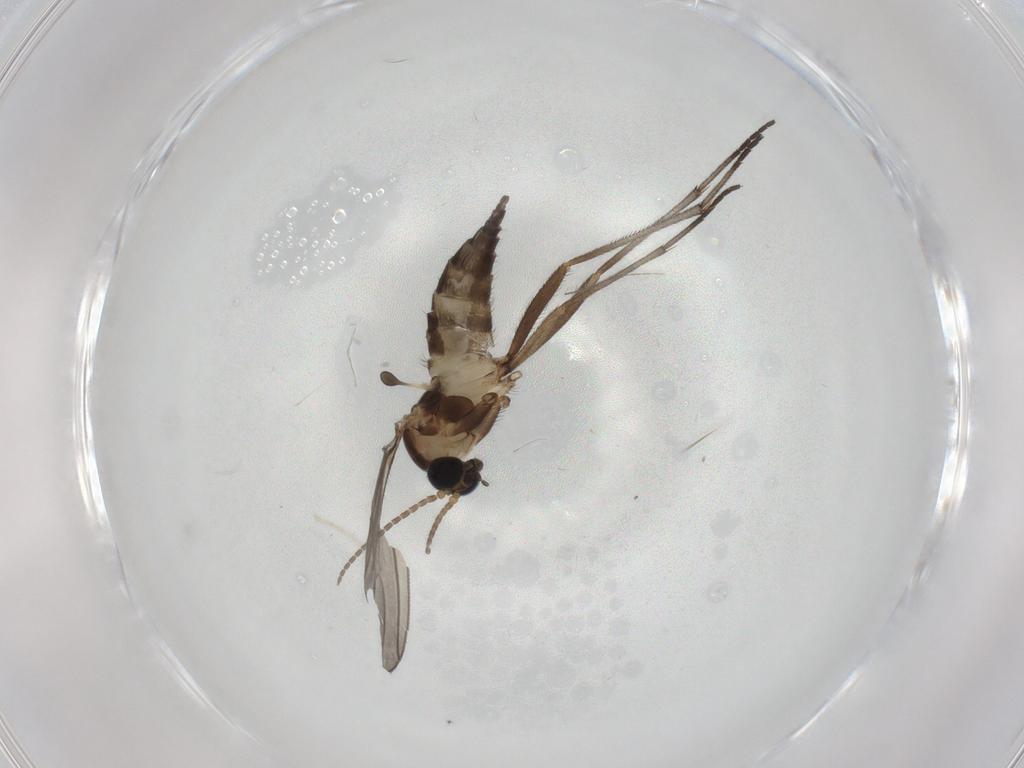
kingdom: Animalia
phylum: Arthropoda
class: Insecta
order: Diptera
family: Sciaridae
